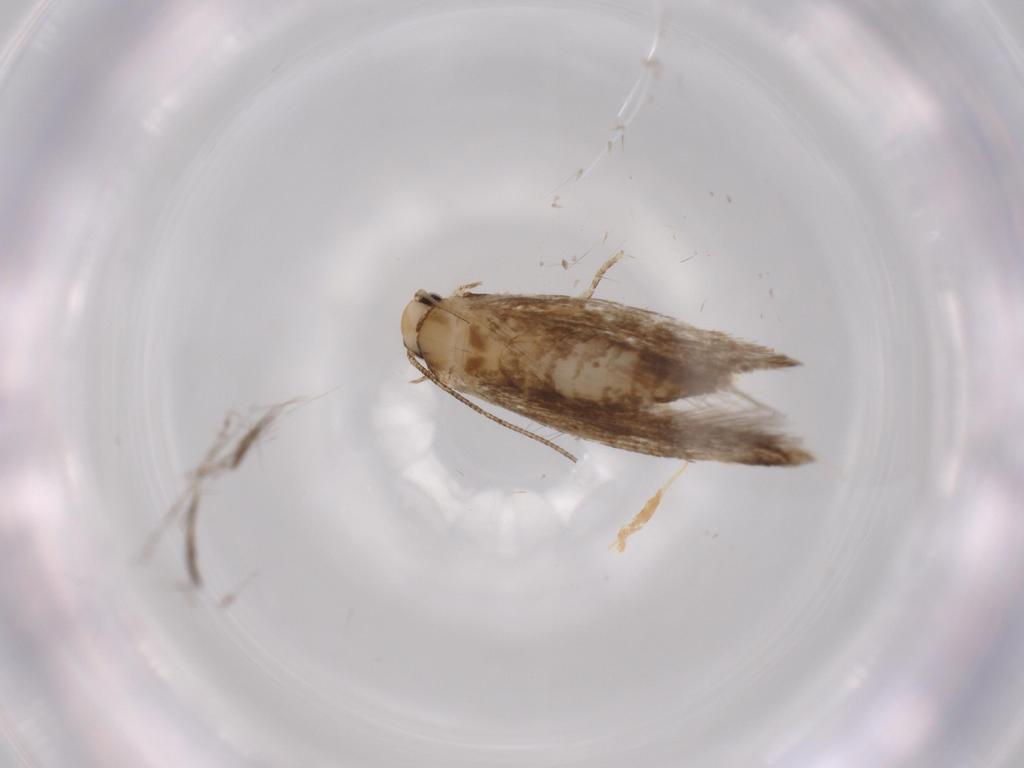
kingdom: Animalia
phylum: Arthropoda
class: Insecta
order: Lepidoptera
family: Tineidae
